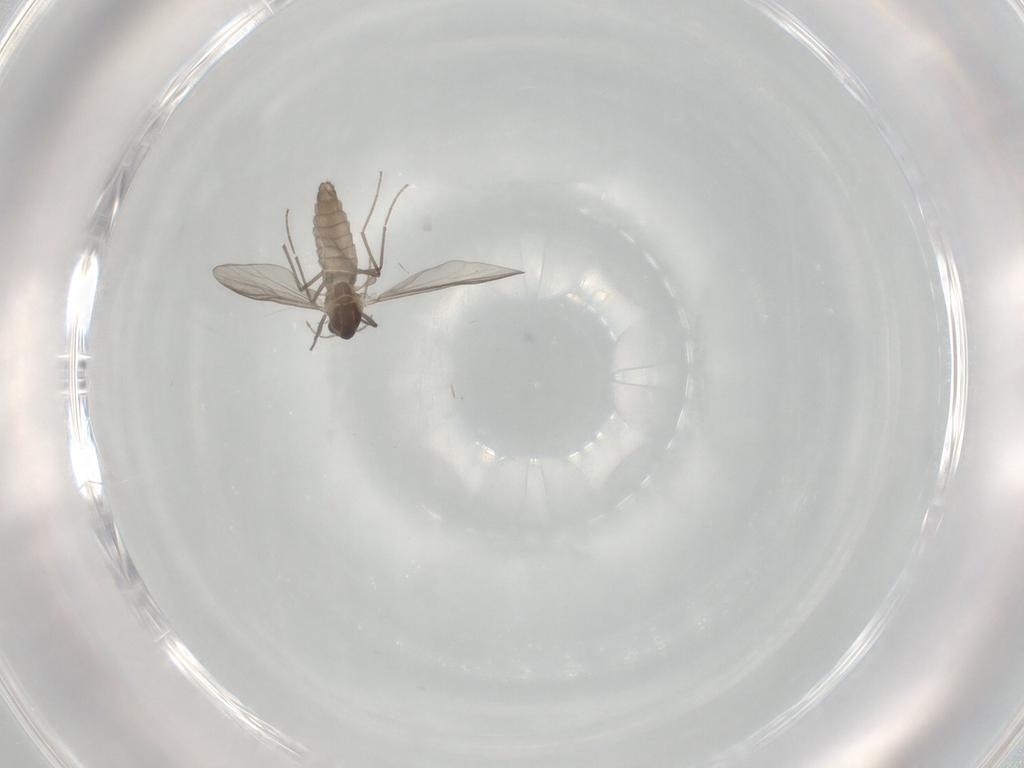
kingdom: Animalia
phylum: Arthropoda
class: Insecta
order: Diptera
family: Chironomidae
